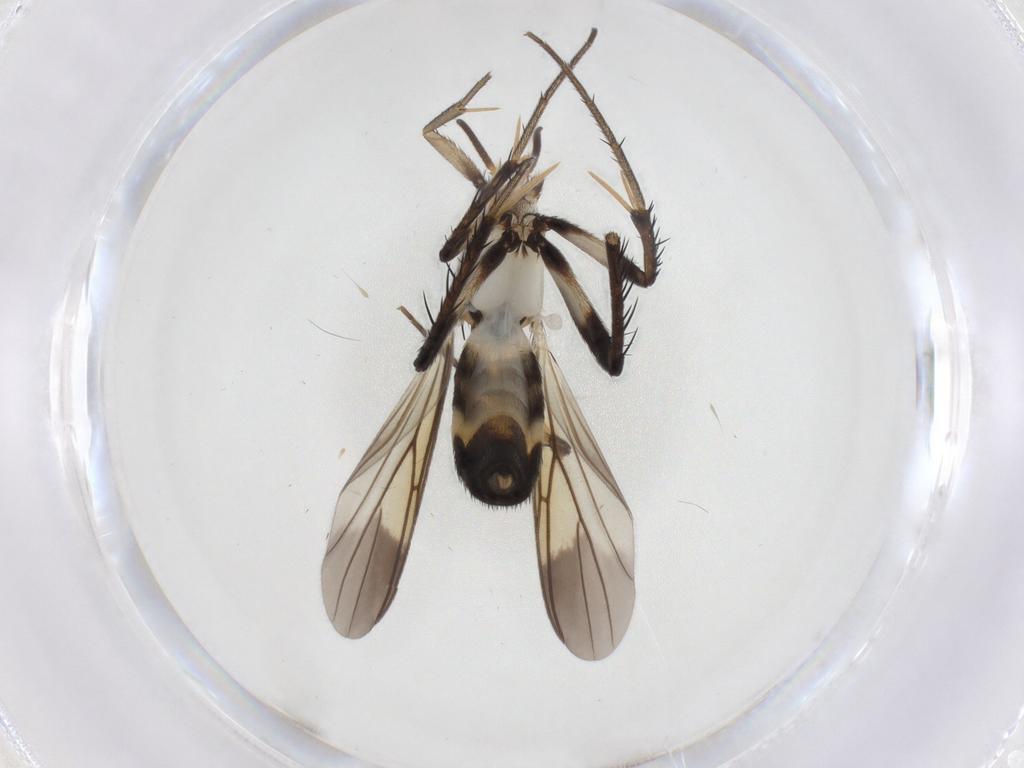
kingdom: Animalia
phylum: Arthropoda
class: Insecta
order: Diptera
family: Mycetophilidae
